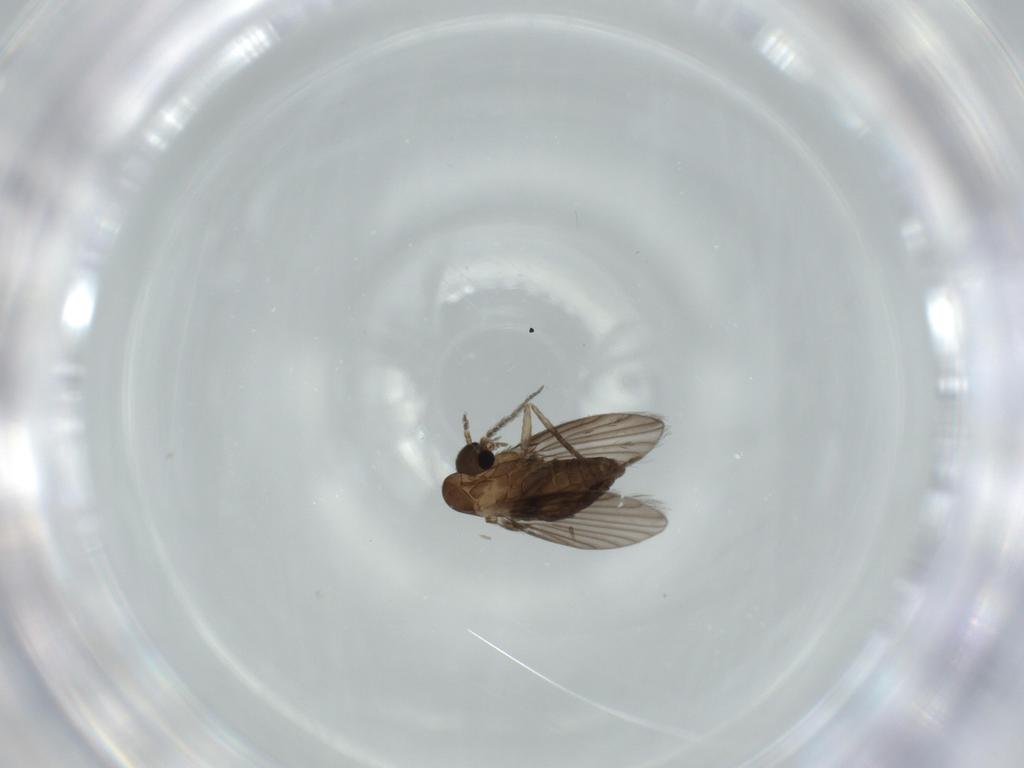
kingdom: Animalia
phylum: Arthropoda
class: Insecta
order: Diptera
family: Psychodidae
